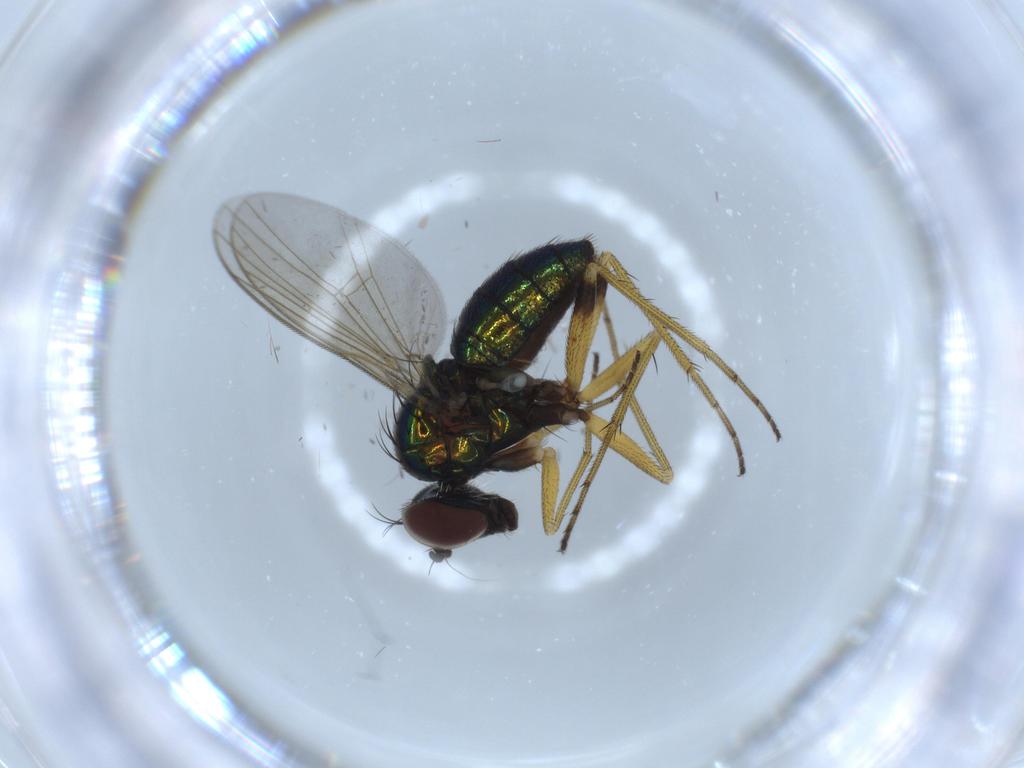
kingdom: Animalia
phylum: Arthropoda
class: Insecta
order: Diptera
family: Dolichopodidae
